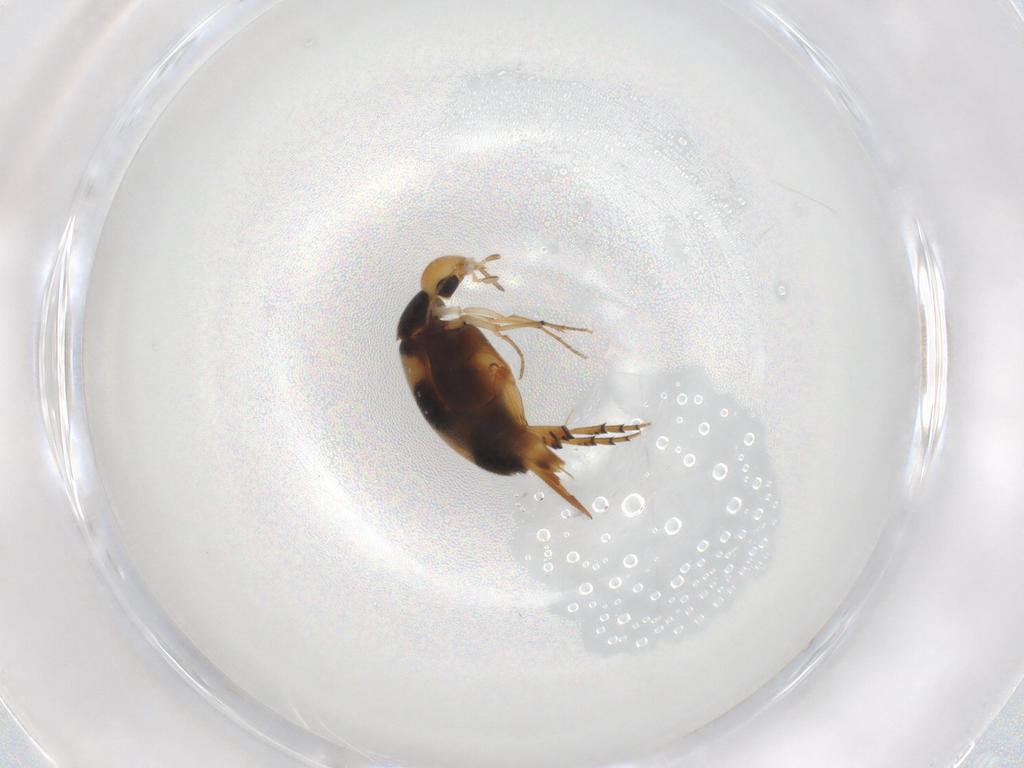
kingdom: Animalia
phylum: Arthropoda
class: Insecta
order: Coleoptera
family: Mordellidae
